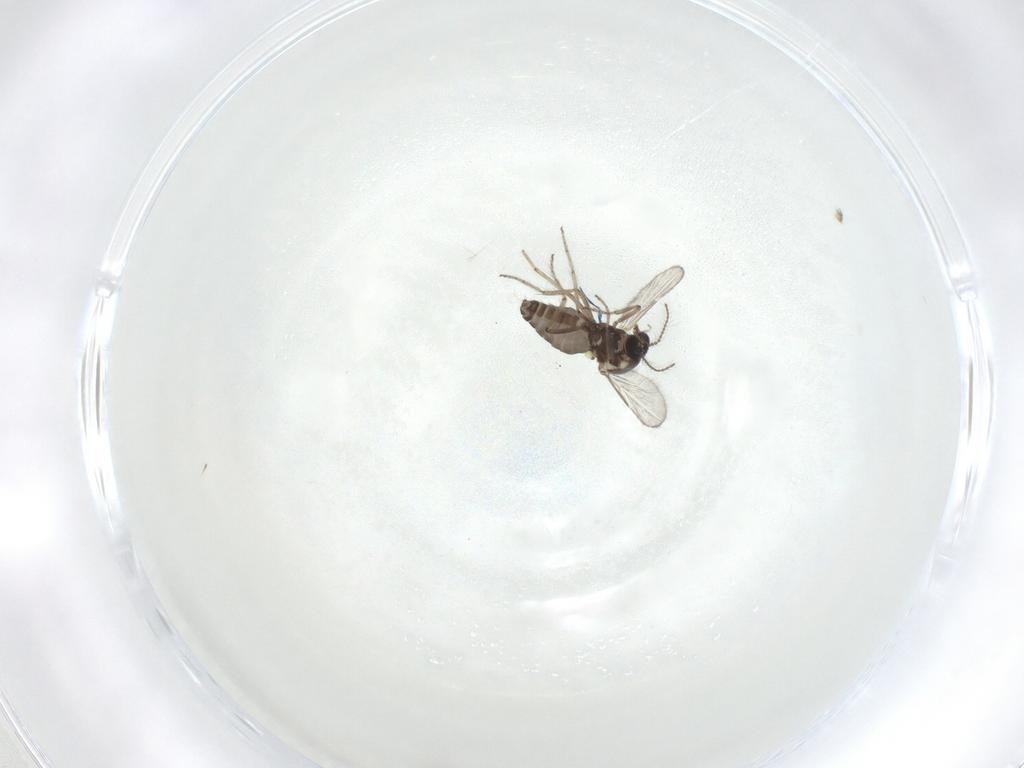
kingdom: Animalia
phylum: Arthropoda
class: Insecta
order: Diptera
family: Ceratopogonidae
